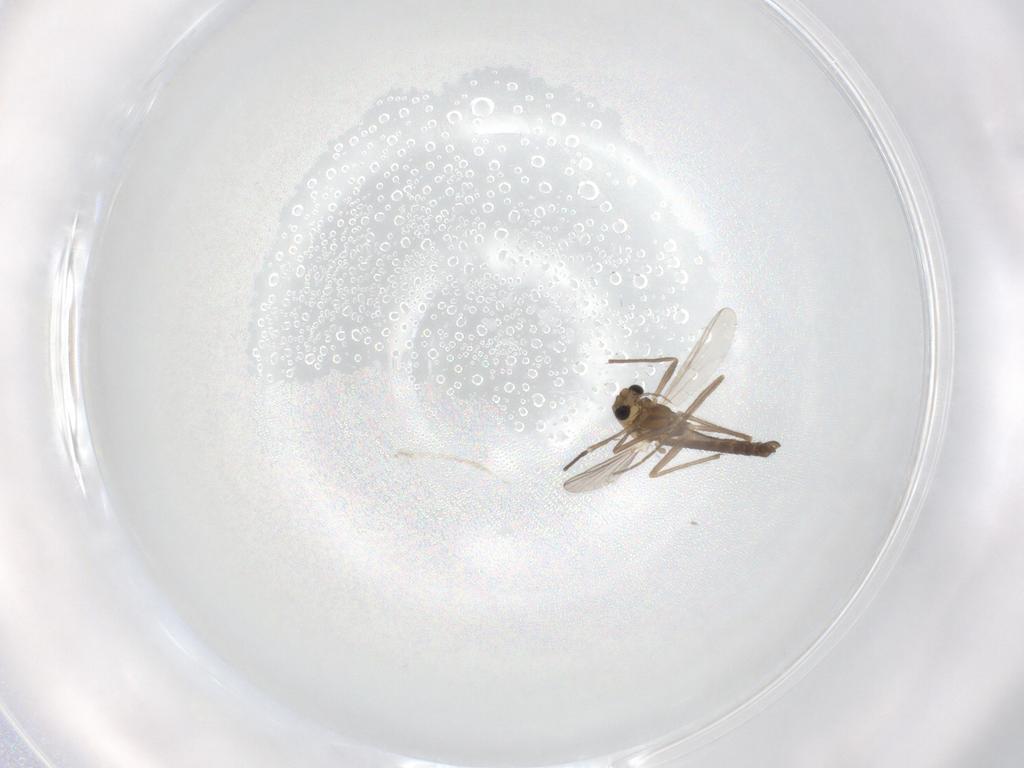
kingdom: Animalia
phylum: Arthropoda
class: Insecta
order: Diptera
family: Chironomidae
